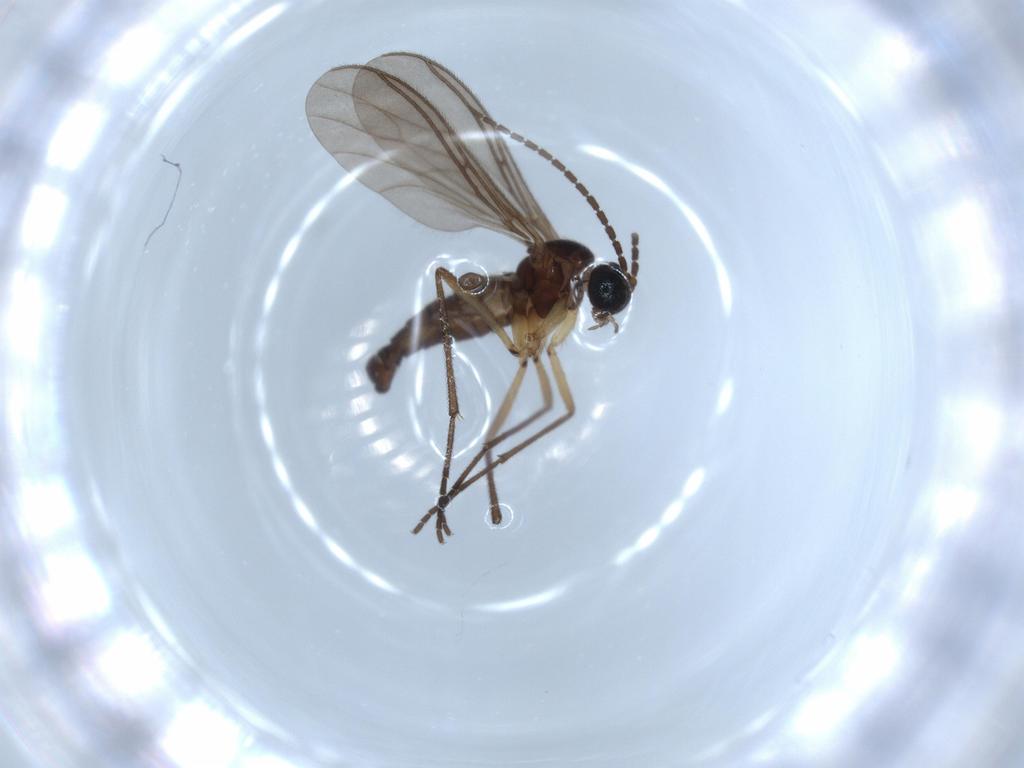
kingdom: Animalia
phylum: Arthropoda
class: Insecta
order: Diptera
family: Sciaridae
